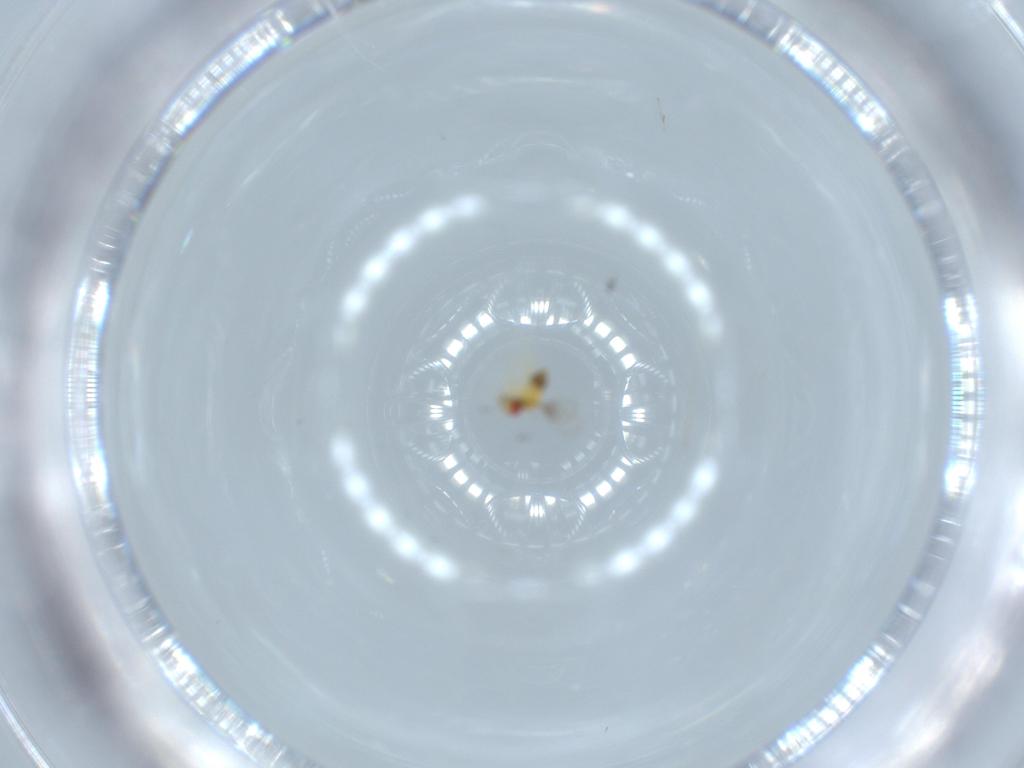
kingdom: Animalia
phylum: Arthropoda
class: Insecta
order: Hymenoptera
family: Trichogrammatidae
